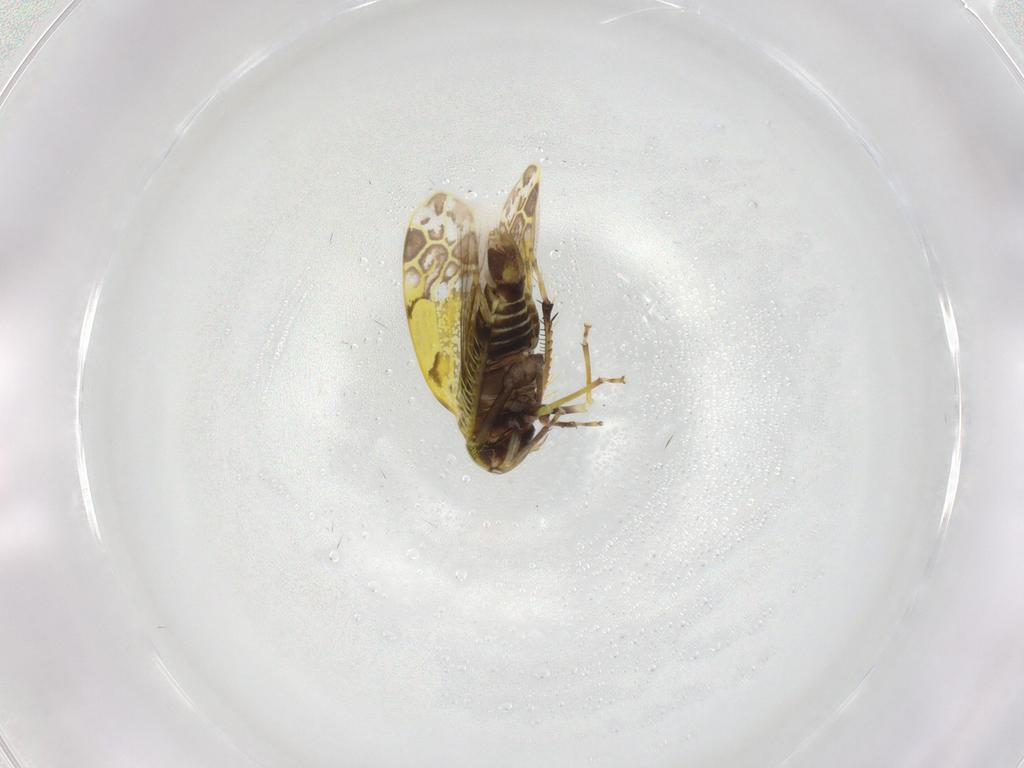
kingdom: Animalia
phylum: Arthropoda
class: Insecta
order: Hemiptera
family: Cicadellidae
